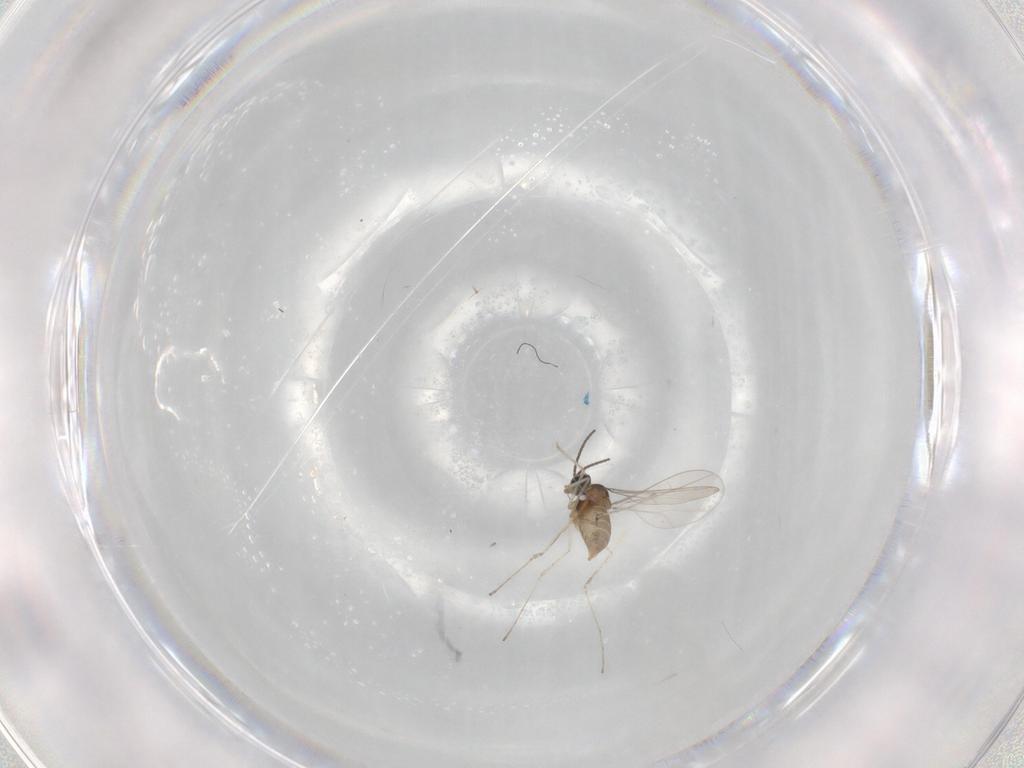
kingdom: Animalia
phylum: Arthropoda
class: Insecta
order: Diptera
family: Cecidomyiidae
